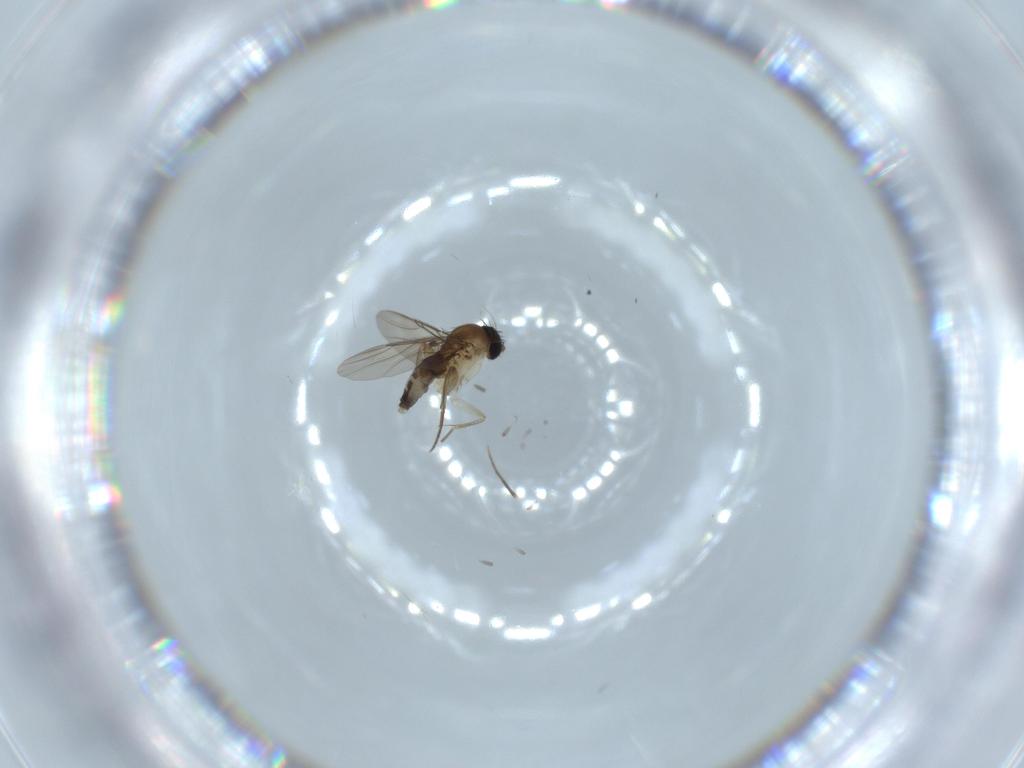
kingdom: Animalia
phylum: Arthropoda
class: Insecta
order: Diptera
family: Phoridae
